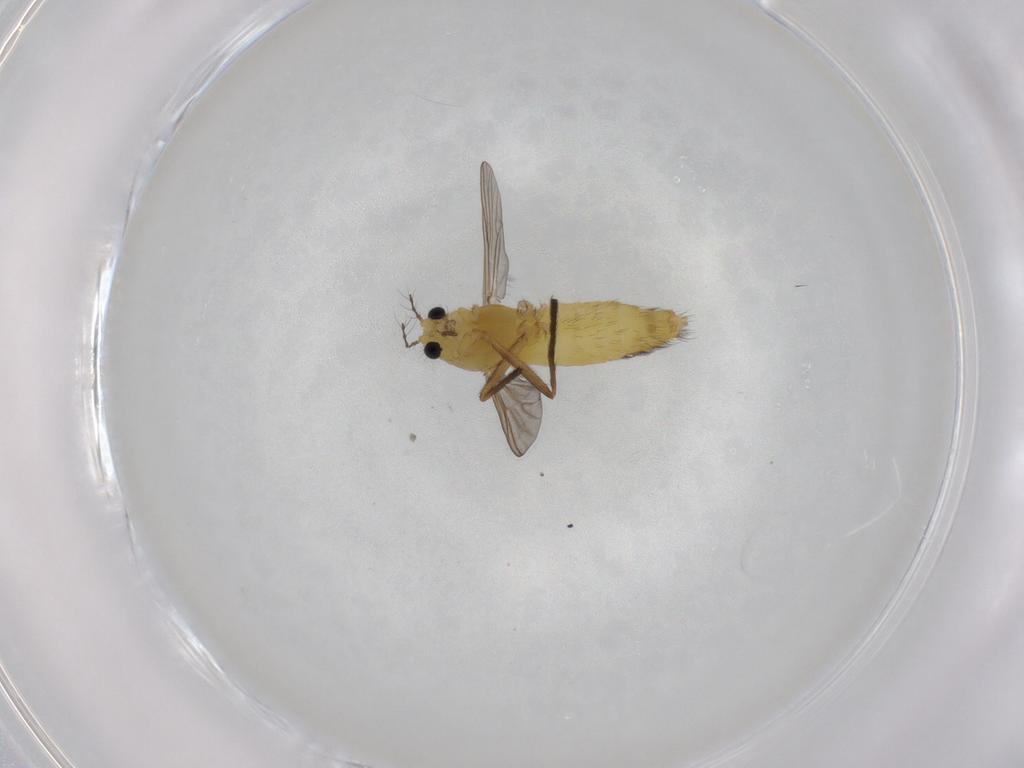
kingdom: Animalia
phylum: Arthropoda
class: Insecta
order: Diptera
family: Chironomidae
